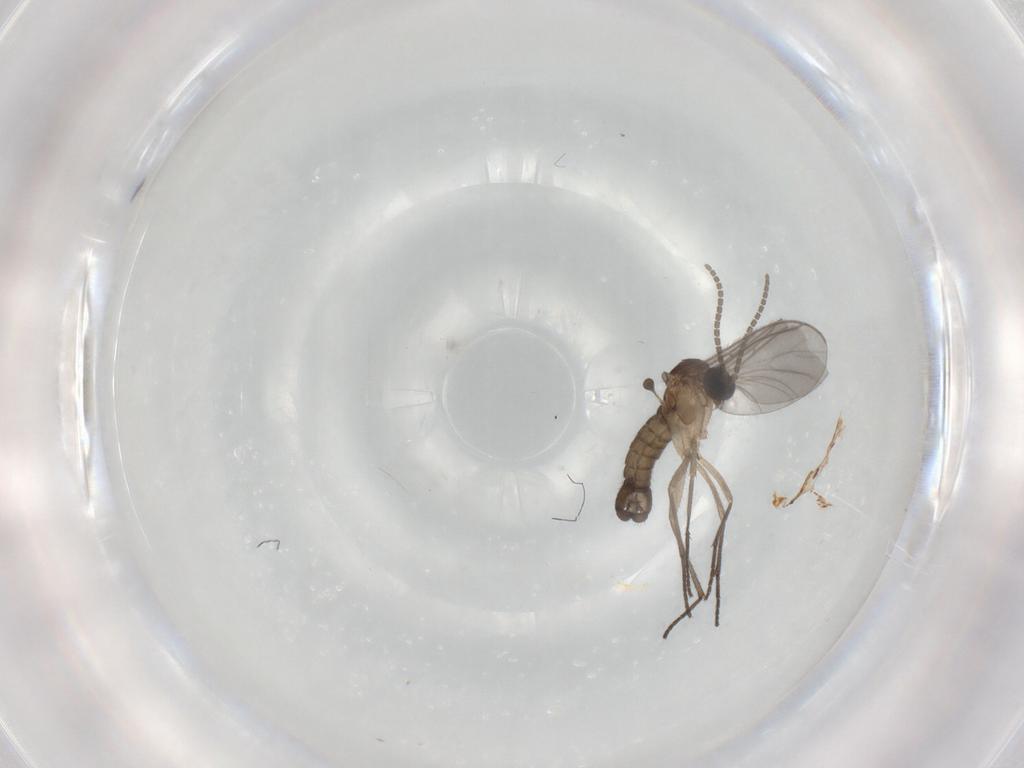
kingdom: Animalia
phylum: Arthropoda
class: Insecta
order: Diptera
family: Sciaridae
